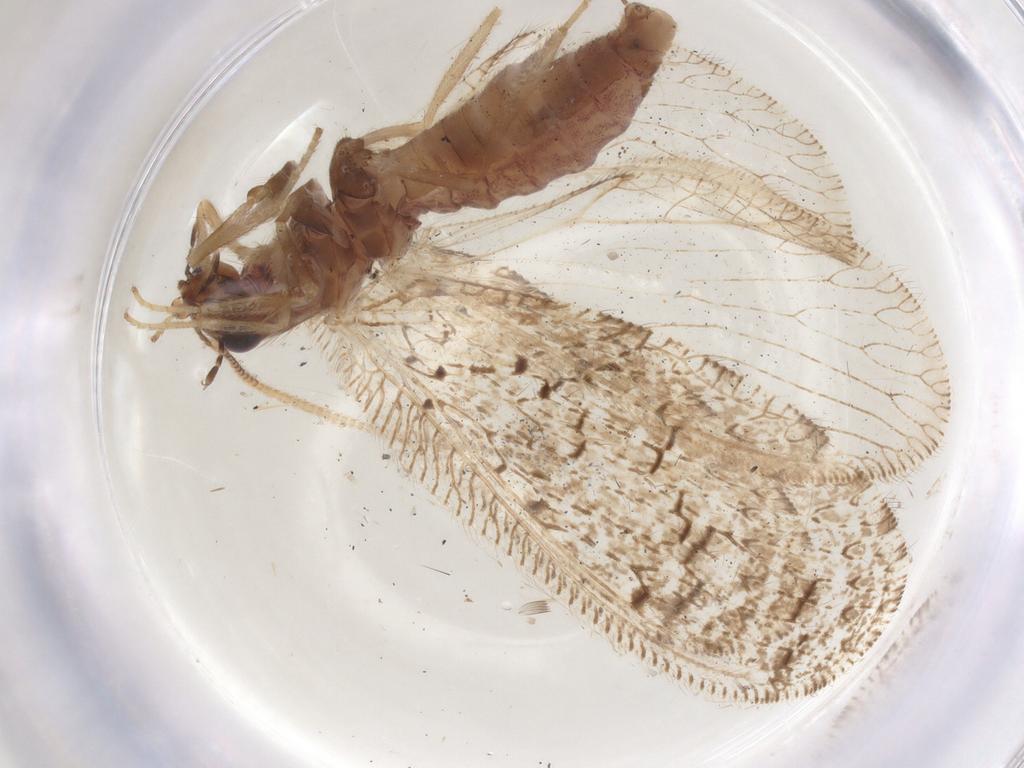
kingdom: Animalia
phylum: Arthropoda
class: Insecta
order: Neuroptera
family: Hemerobiidae
